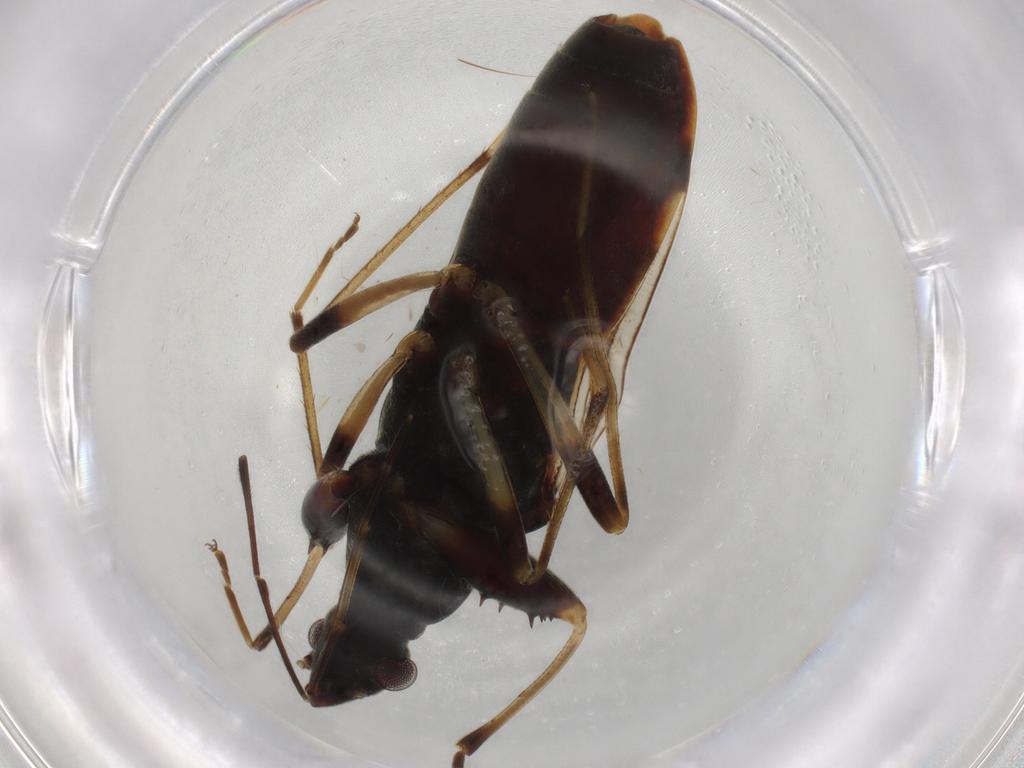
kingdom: Animalia
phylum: Arthropoda
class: Insecta
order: Hemiptera
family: Rhyparochromidae
